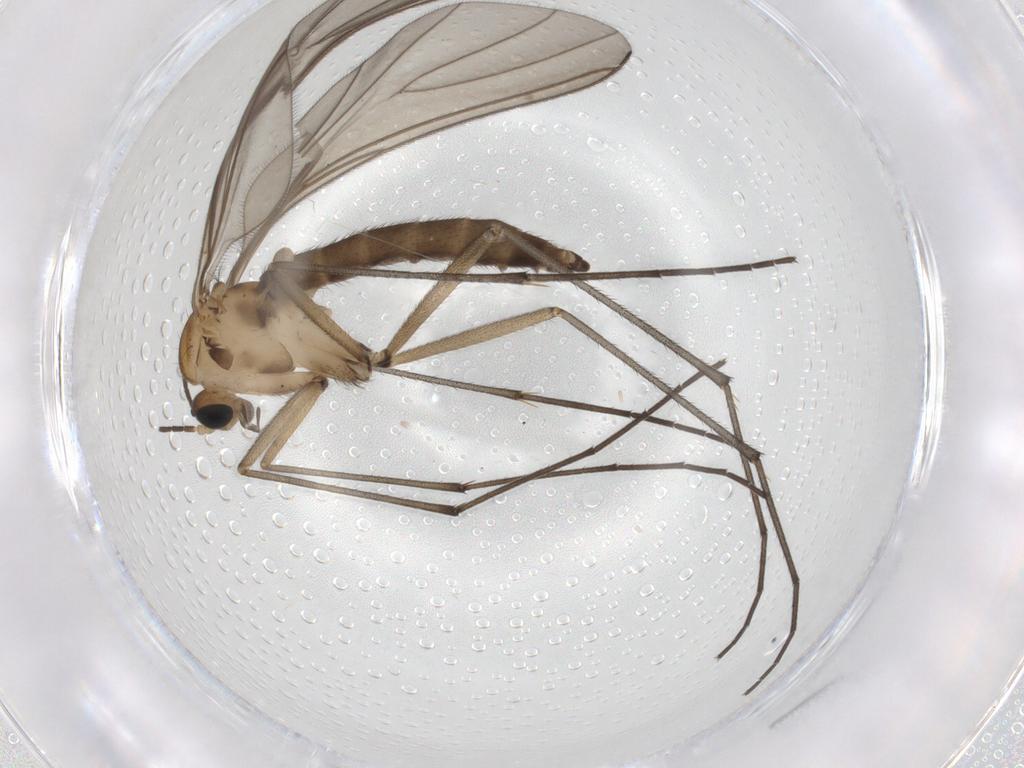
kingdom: Animalia
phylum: Arthropoda
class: Insecta
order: Diptera
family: Sciaridae
